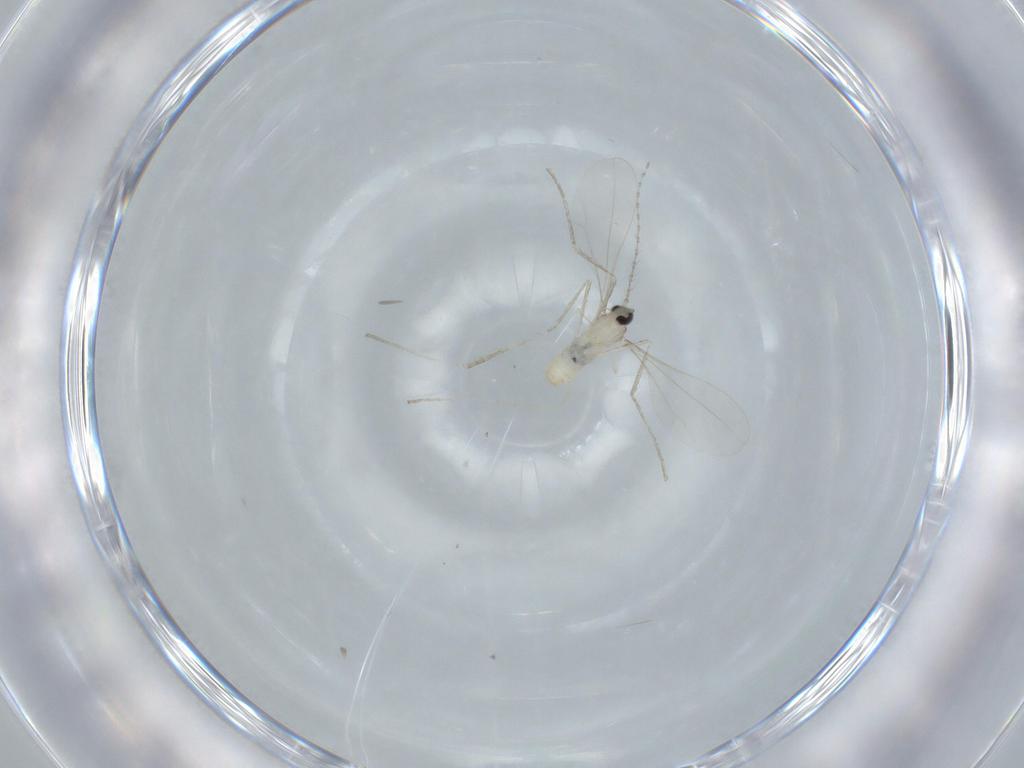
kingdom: Animalia
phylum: Arthropoda
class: Insecta
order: Diptera
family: Cecidomyiidae
